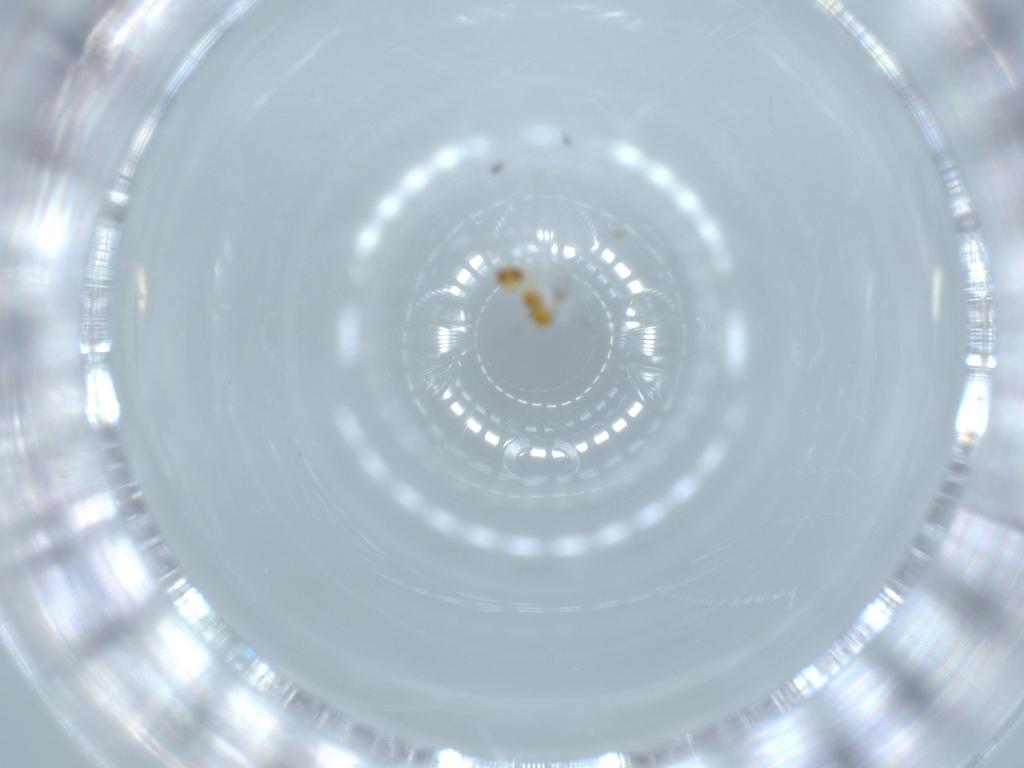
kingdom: Animalia
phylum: Arthropoda
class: Insecta
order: Hymenoptera
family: Trichogrammatidae
